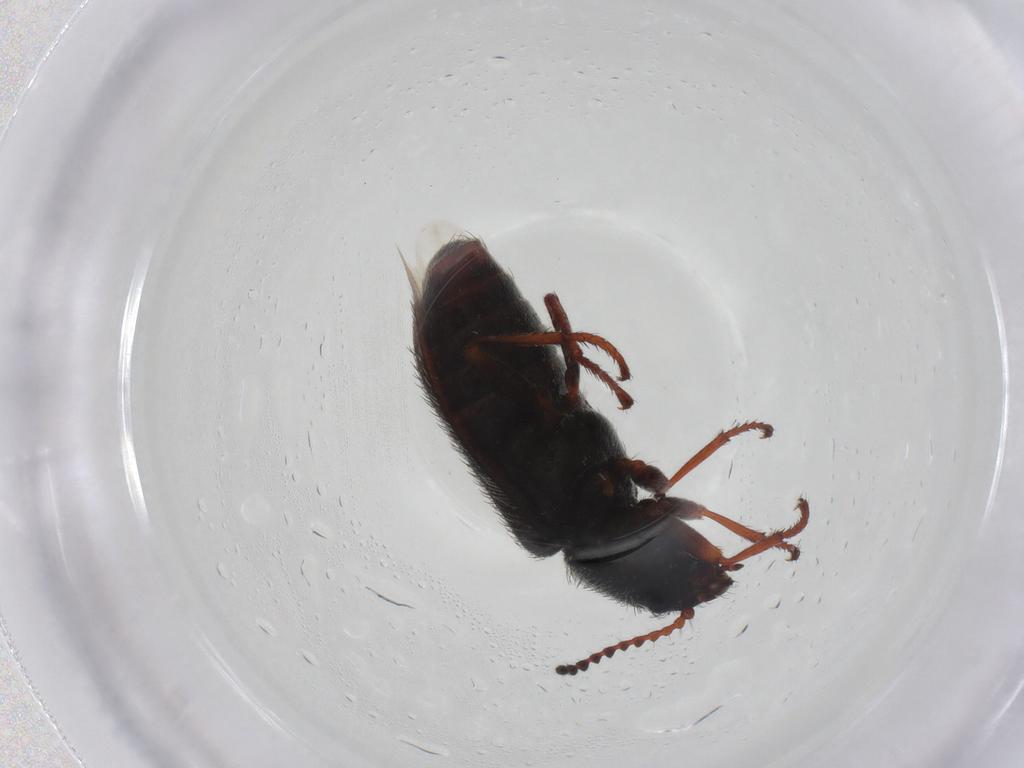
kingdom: Animalia
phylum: Arthropoda
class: Insecta
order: Coleoptera
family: Melyridae
